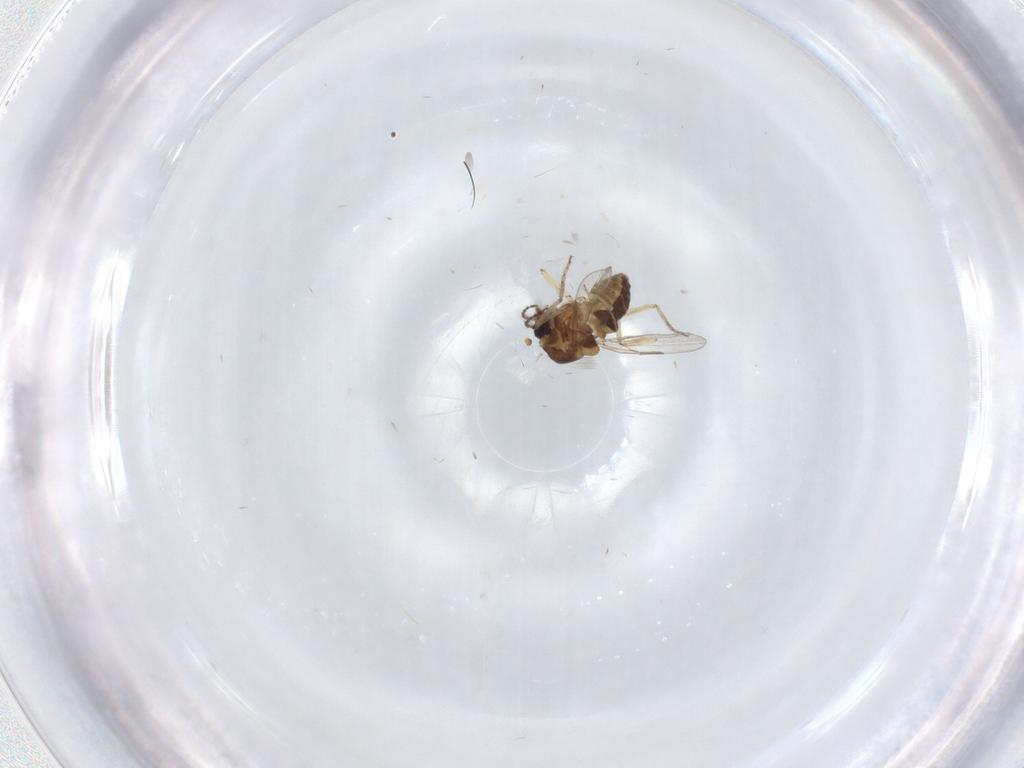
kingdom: Animalia
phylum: Arthropoda
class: Insecta
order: Diptera
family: Ceratopogonidae
